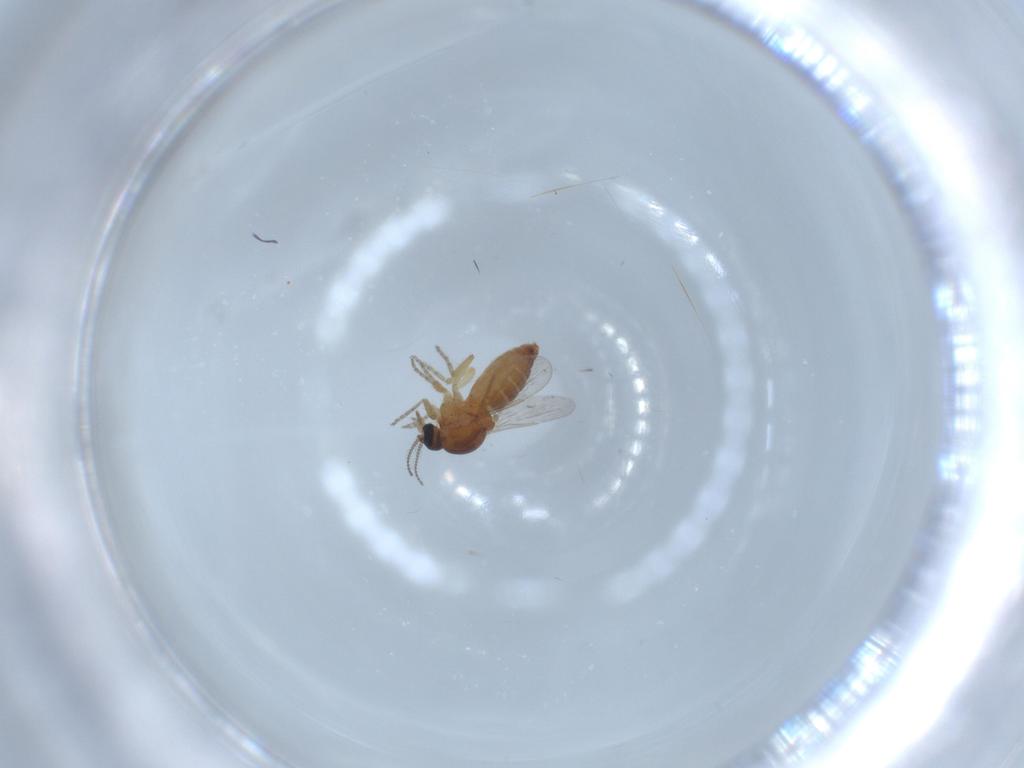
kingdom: Animalia
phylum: Arthropoda
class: Insecta
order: Diptera
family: Ceratopogonidae
